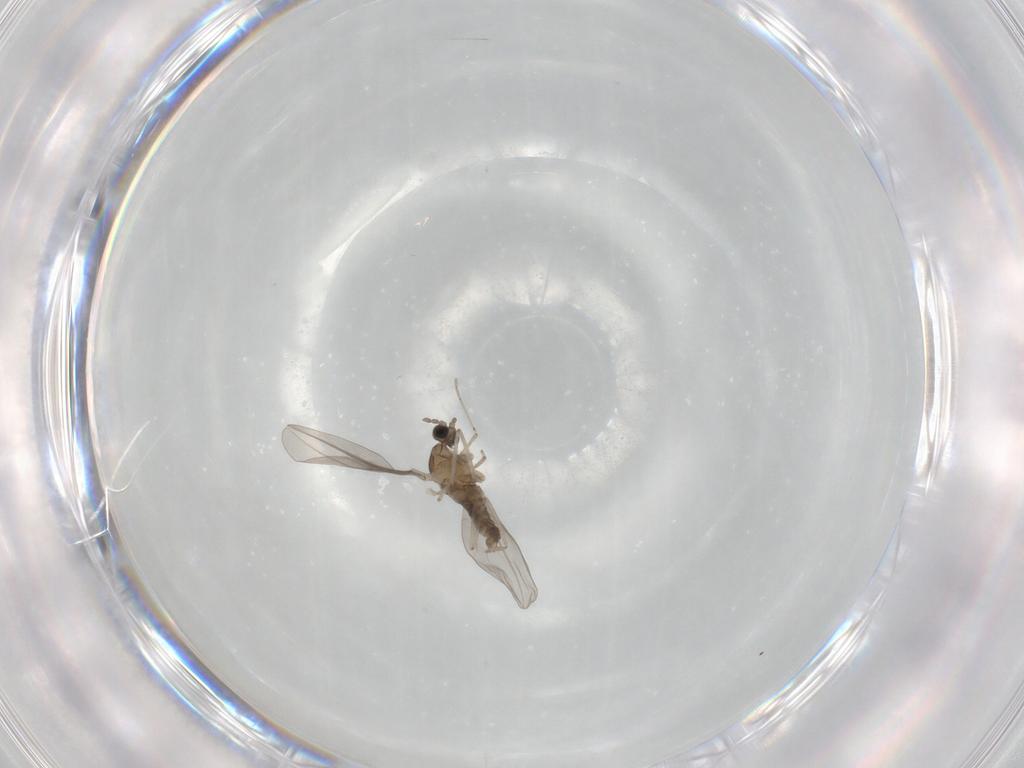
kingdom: Animalia
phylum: Arthropoda
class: Insecta
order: Diptera
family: Cecidomyiidae
